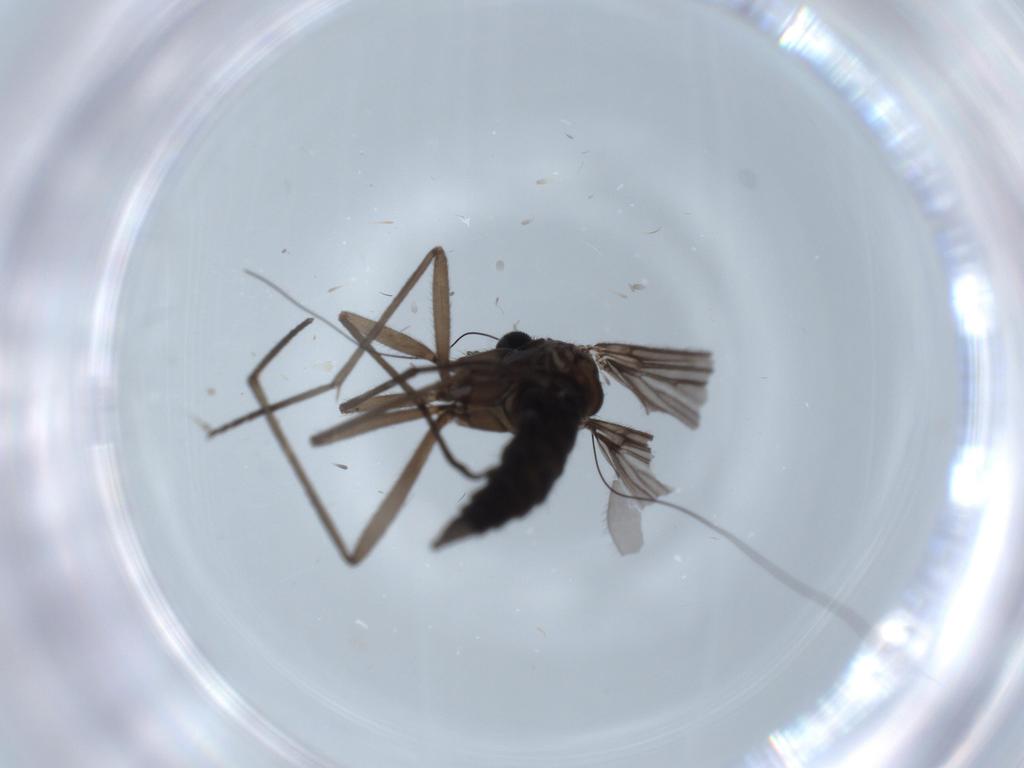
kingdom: Animalia
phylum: Arthropoda
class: Insecta
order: Diptera
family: Sciaridae
